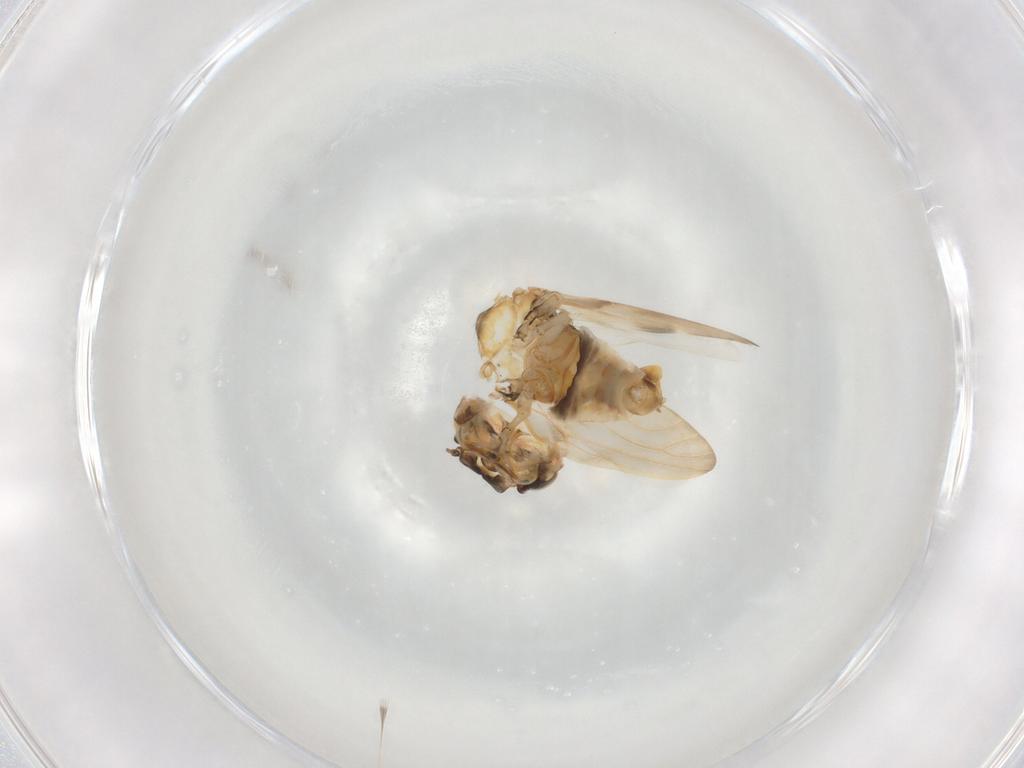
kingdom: Animalia
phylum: Arthropoda
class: Insecta
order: Hemiptera
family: Aphalaridae
